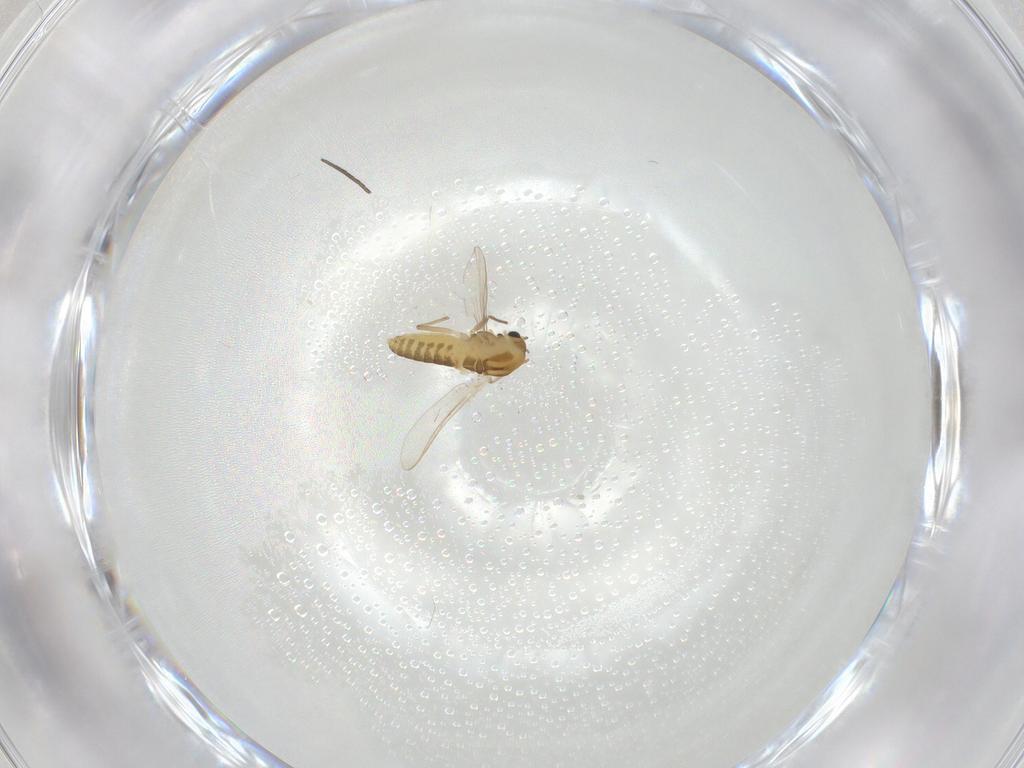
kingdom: Animalia
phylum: Arthropoda
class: Insecta
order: Diptera
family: Chironomidae
